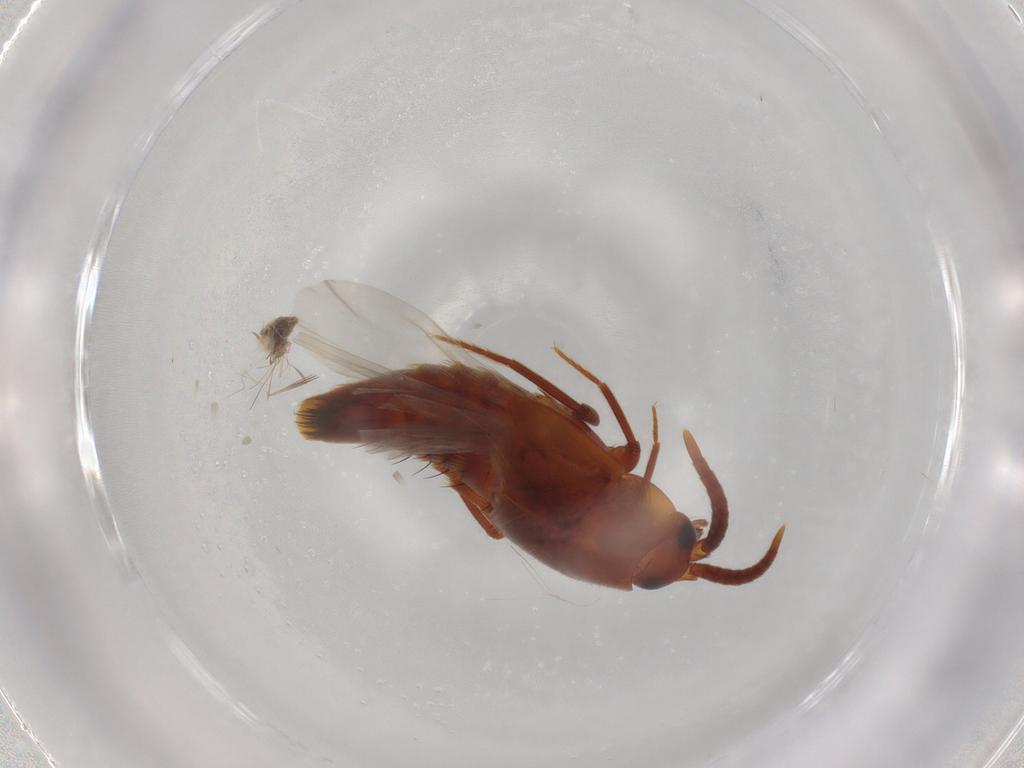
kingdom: Animalia
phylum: Arthropoda
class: Insecta
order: Coleoptera
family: Staphylinidae
